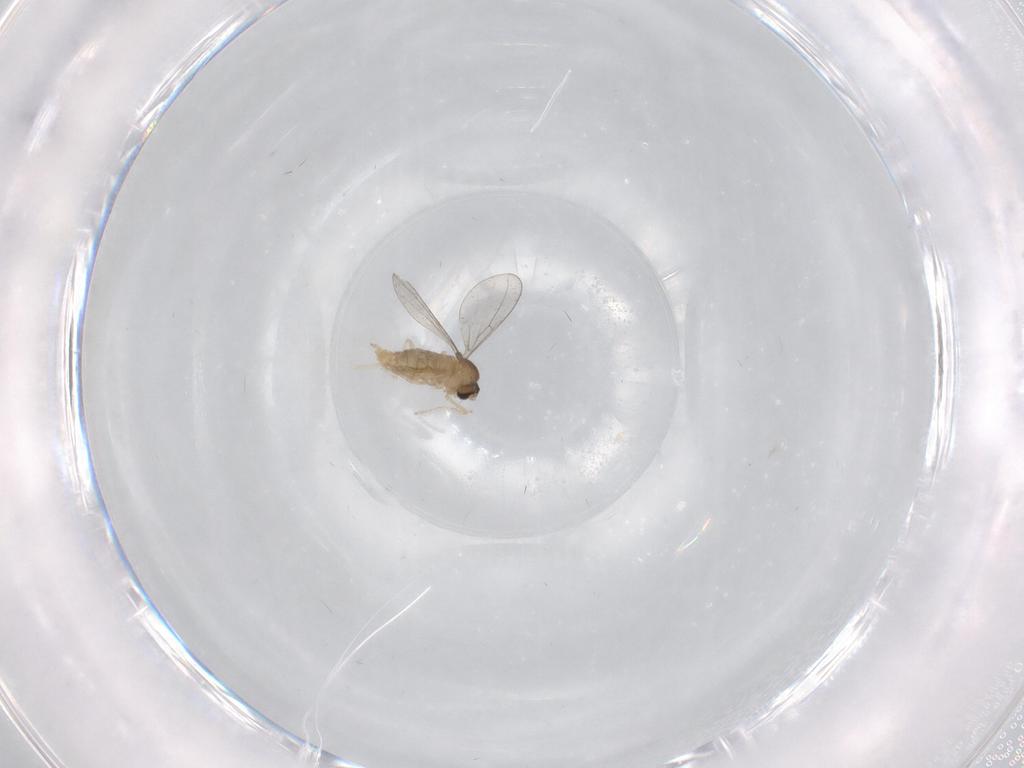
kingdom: Animalia
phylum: Arthropoda
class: Insecta
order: Diptera
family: Cecidomyiidae
